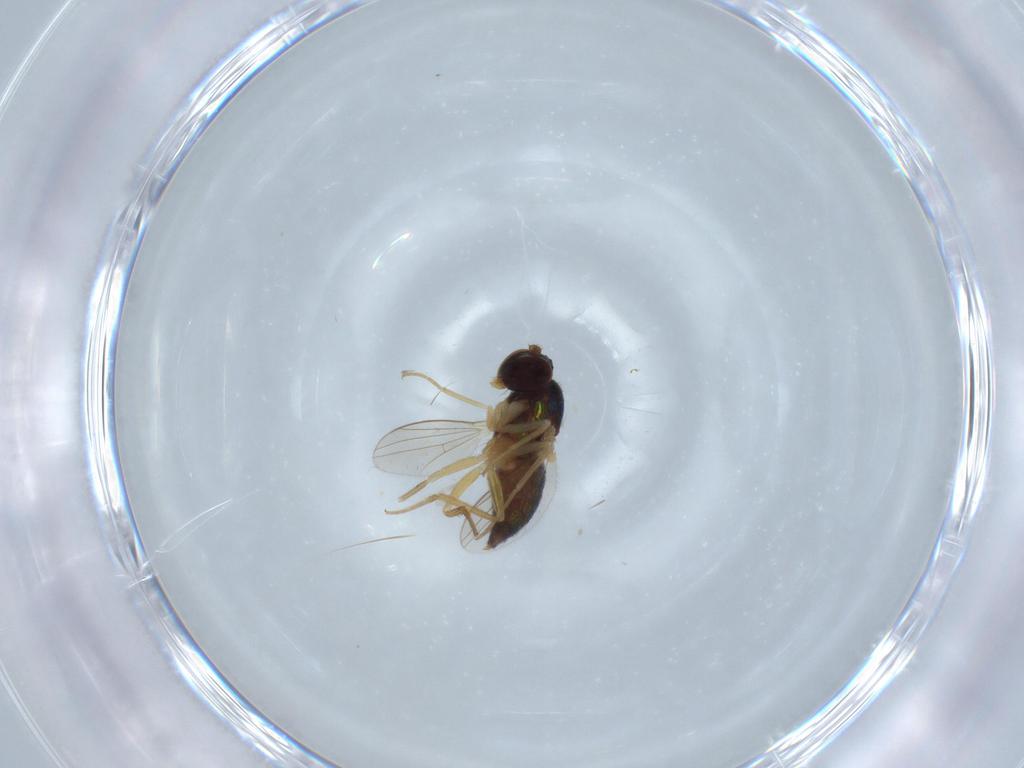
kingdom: Animalia
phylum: Arthropoda
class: Insecta
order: Diptera
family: Dolichopodidae
